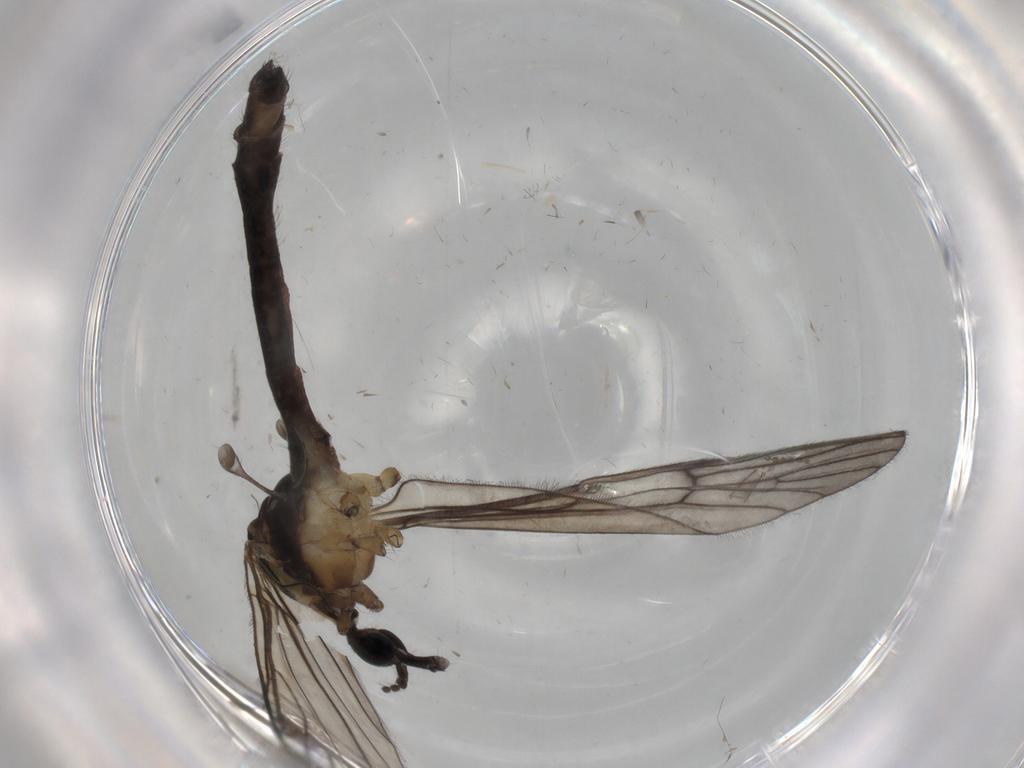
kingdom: Animalia
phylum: Arthropoda
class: Insecta
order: Diptera
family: Limoniidae
